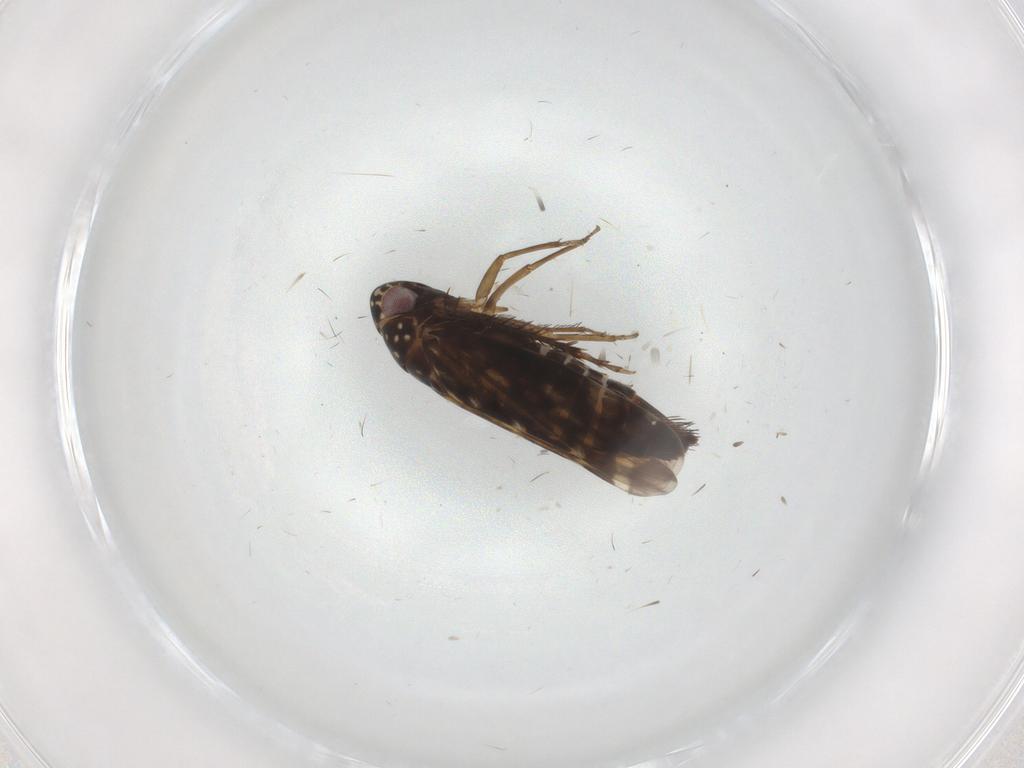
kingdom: Animalia
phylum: Arthropoda
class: Insecta
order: Hemiptera
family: Cicadellidae
